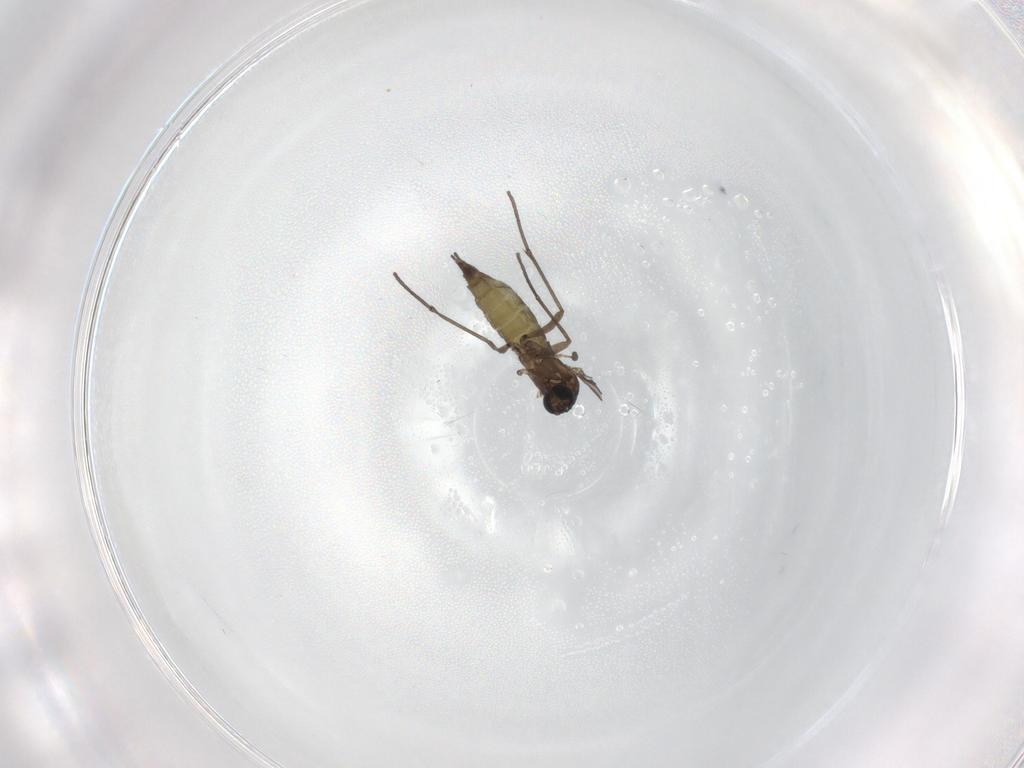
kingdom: Animalia
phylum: Arthropoda
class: Insecta
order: Diptera
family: Sciaridae
